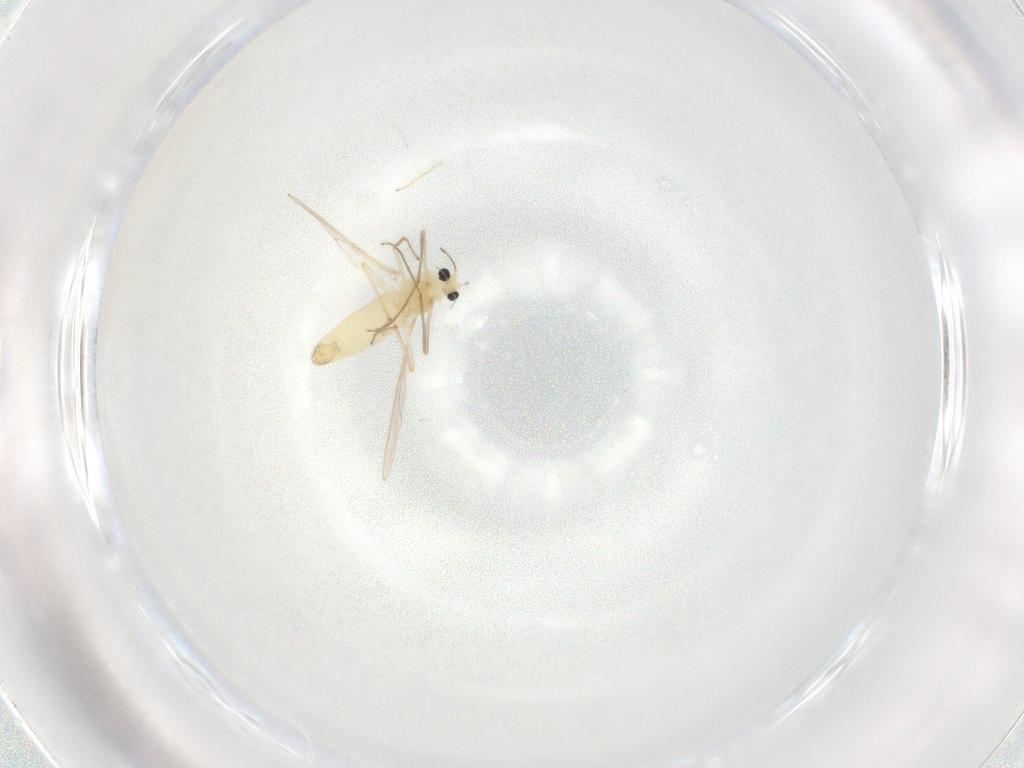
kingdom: Animalia
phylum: Arthropoda
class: Insecta
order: Diptera
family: Chironomidae
